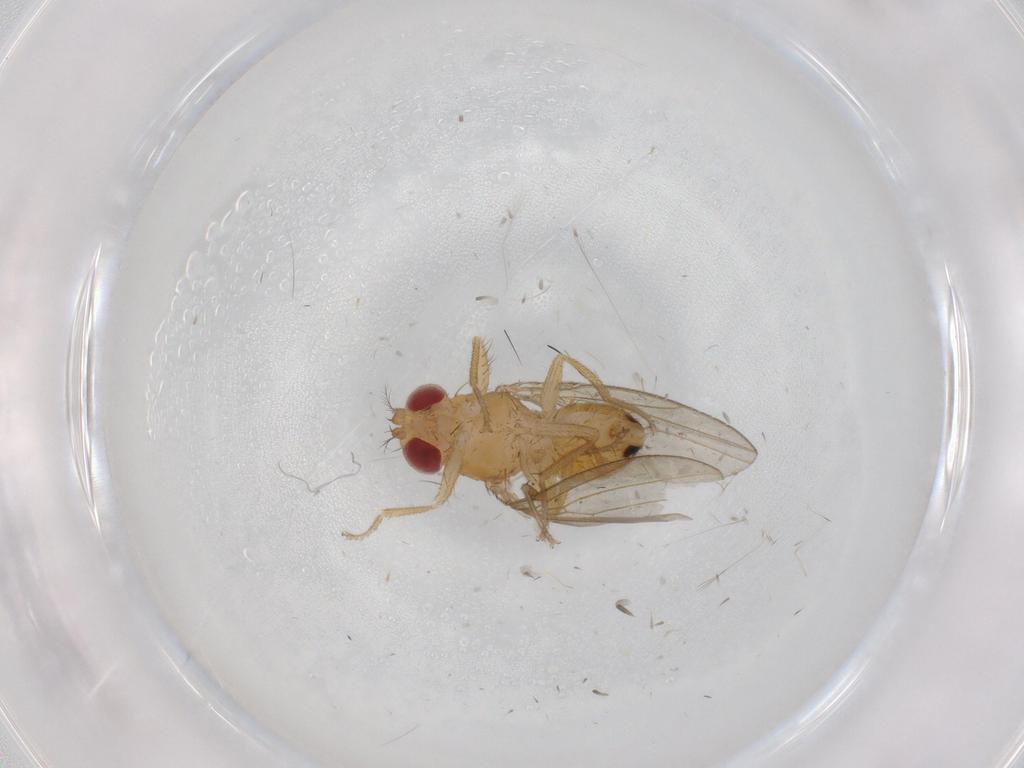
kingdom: Animalia
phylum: Arthropoda
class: Insecta
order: Diptera
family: Drosophilidae
